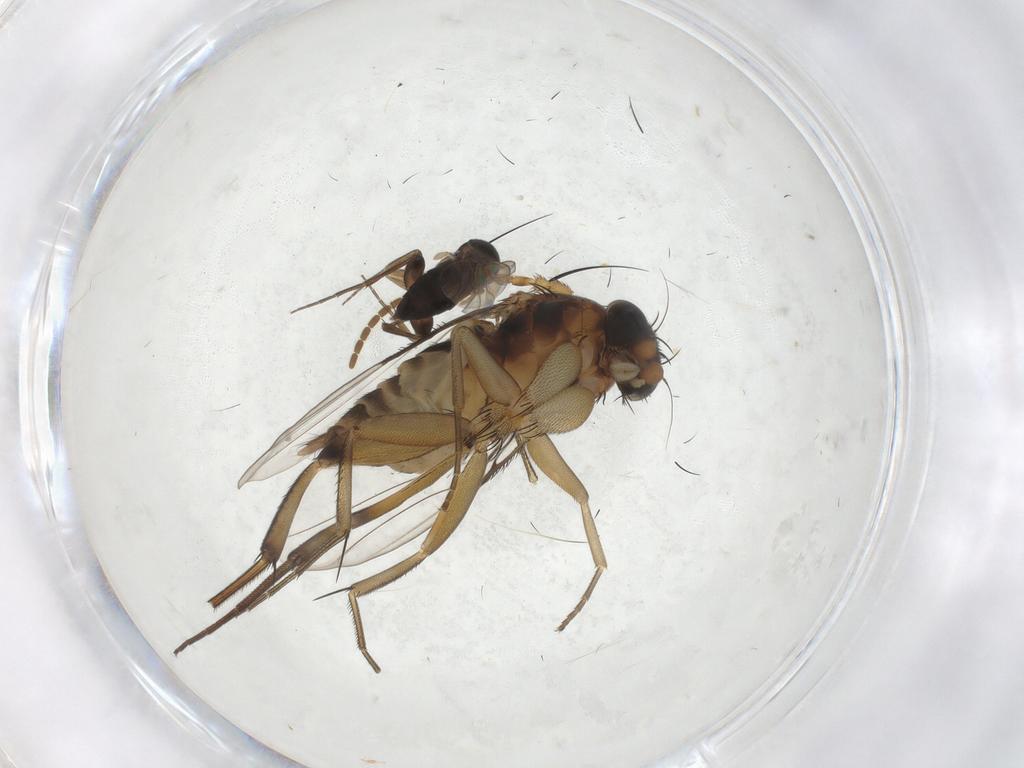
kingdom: Animalia
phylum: Arthropoda
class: Insecta
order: Diptera
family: Phoridae
